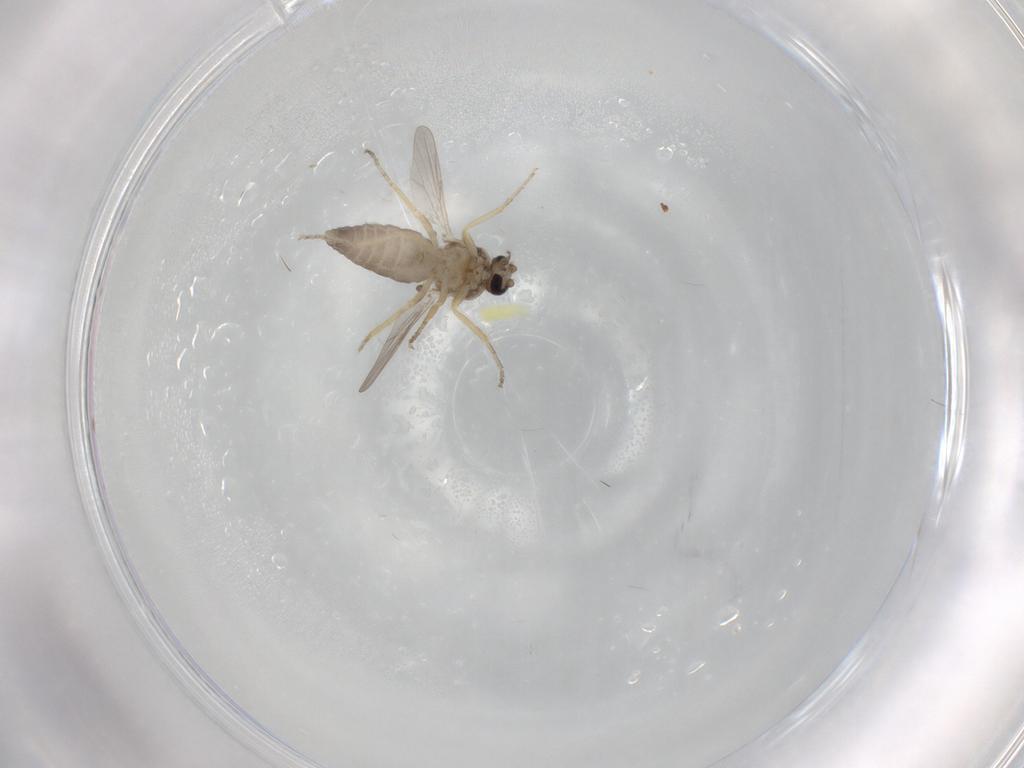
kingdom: Animalia
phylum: Arthropoda
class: Insecta
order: Diptera
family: Ceratopogonidae
